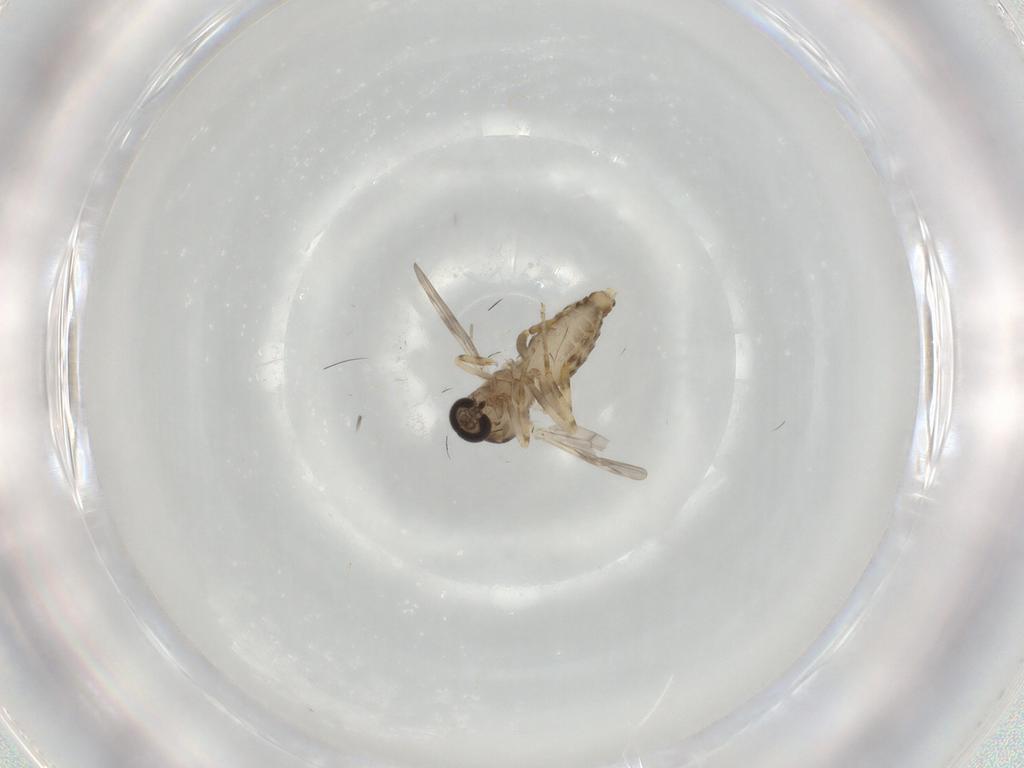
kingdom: Animalia
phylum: Arthropoda
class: Insecta
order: Diptera
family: Ceratopogonidae
